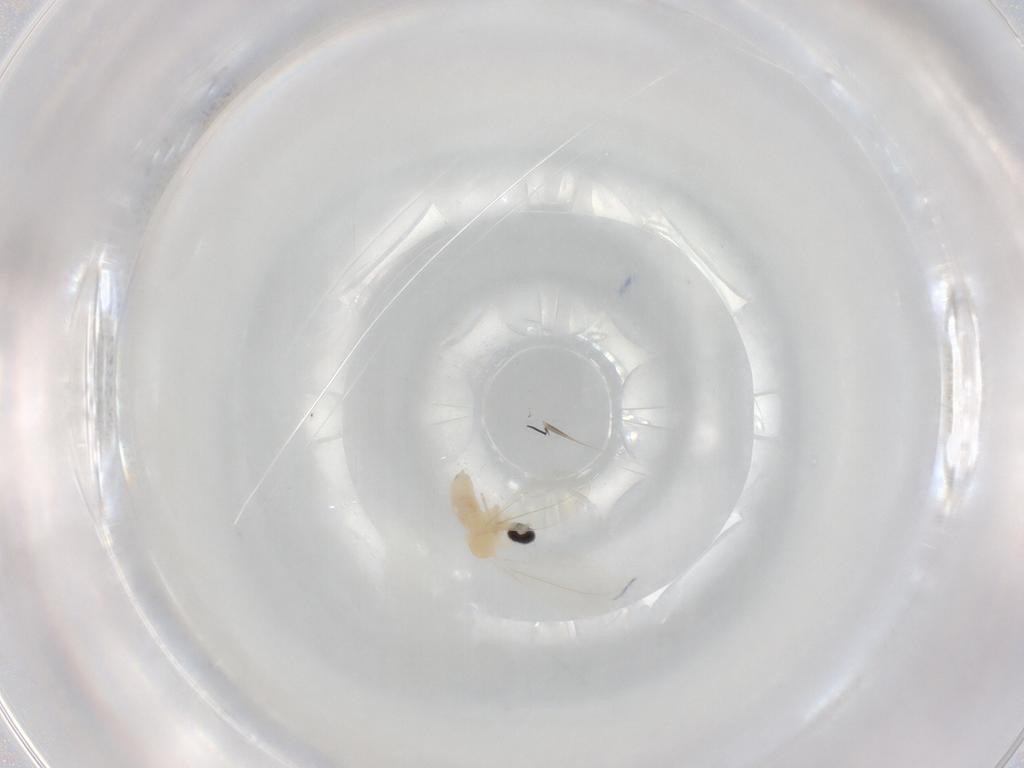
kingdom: Animalia
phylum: Arthropoda
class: Insecta
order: Diptera
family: Cecidomyiidae
